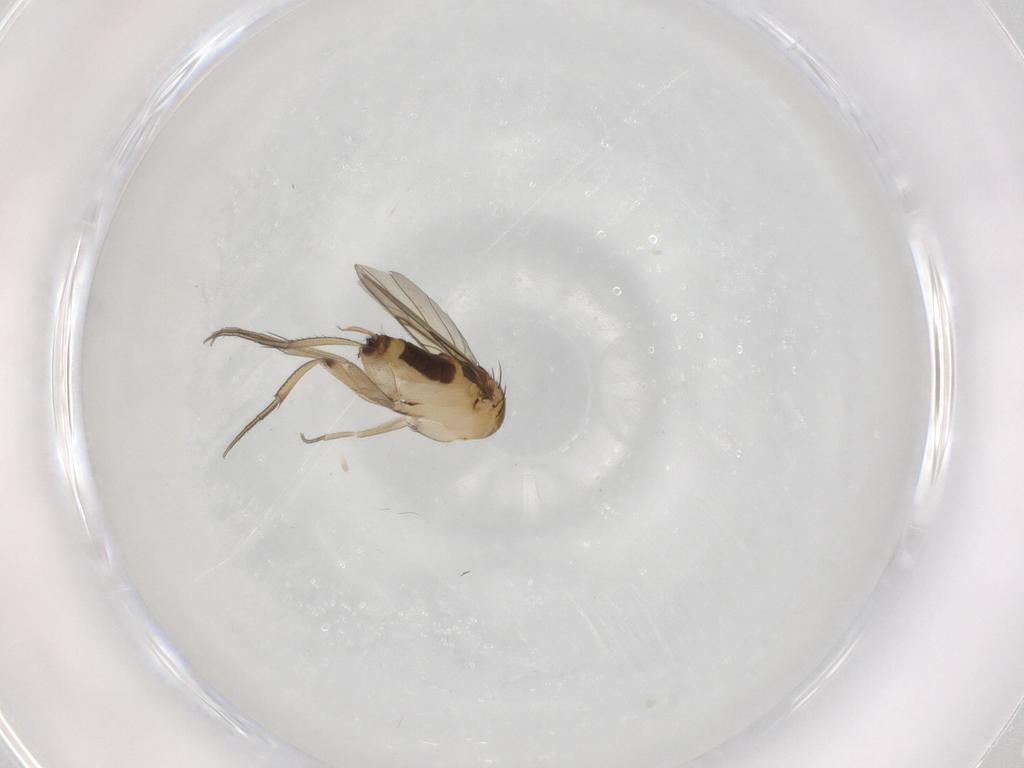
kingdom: Animalia
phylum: Arthropoda
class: Insecta
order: Diptera
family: Phoridae
